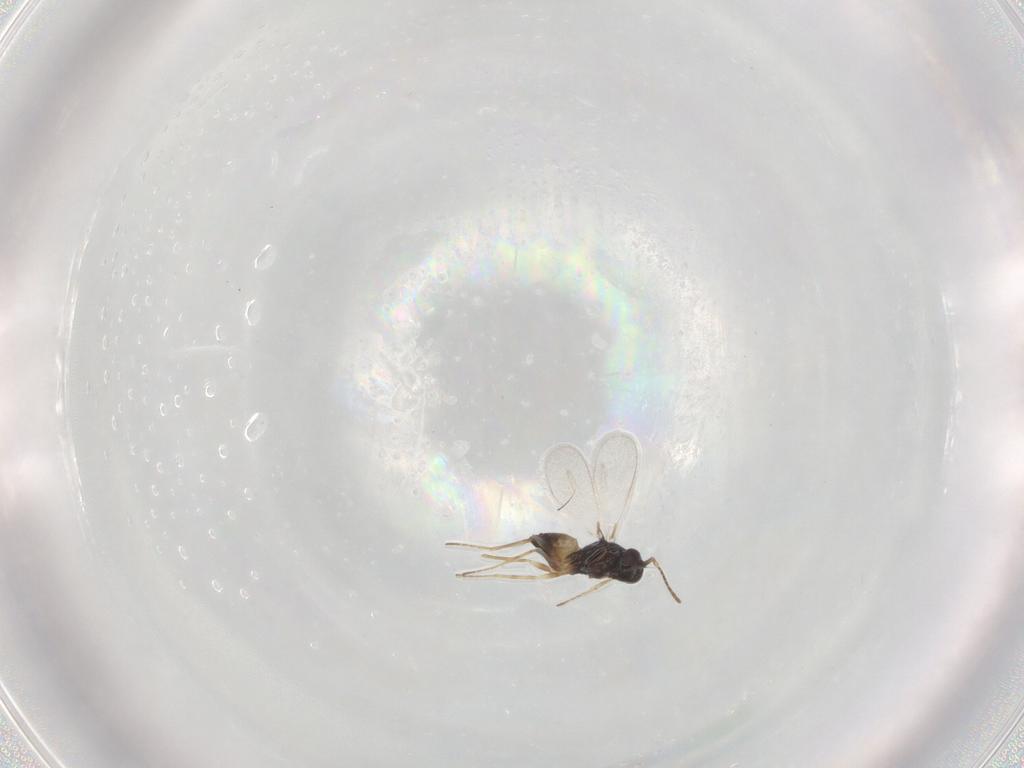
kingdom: Animalia
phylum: Arthropoda
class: Insecta
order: Hymenoptera
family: Mymaridae
